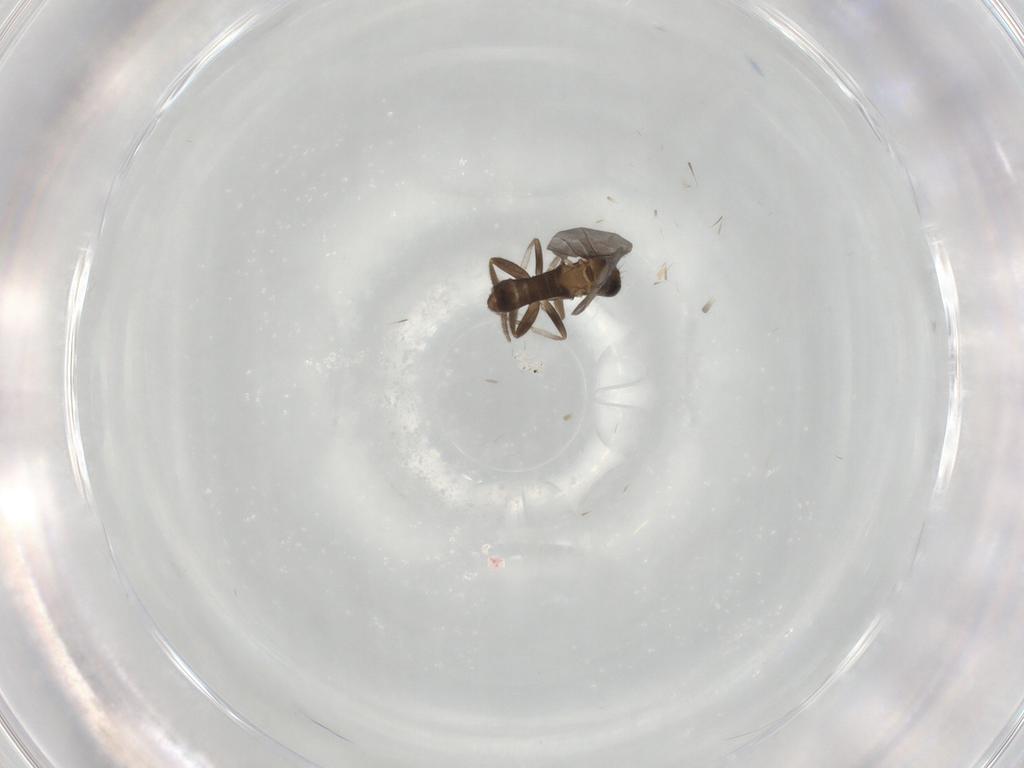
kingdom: Animalia
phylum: Arthropoda
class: Insecta
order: Diptera
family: Phoridae
